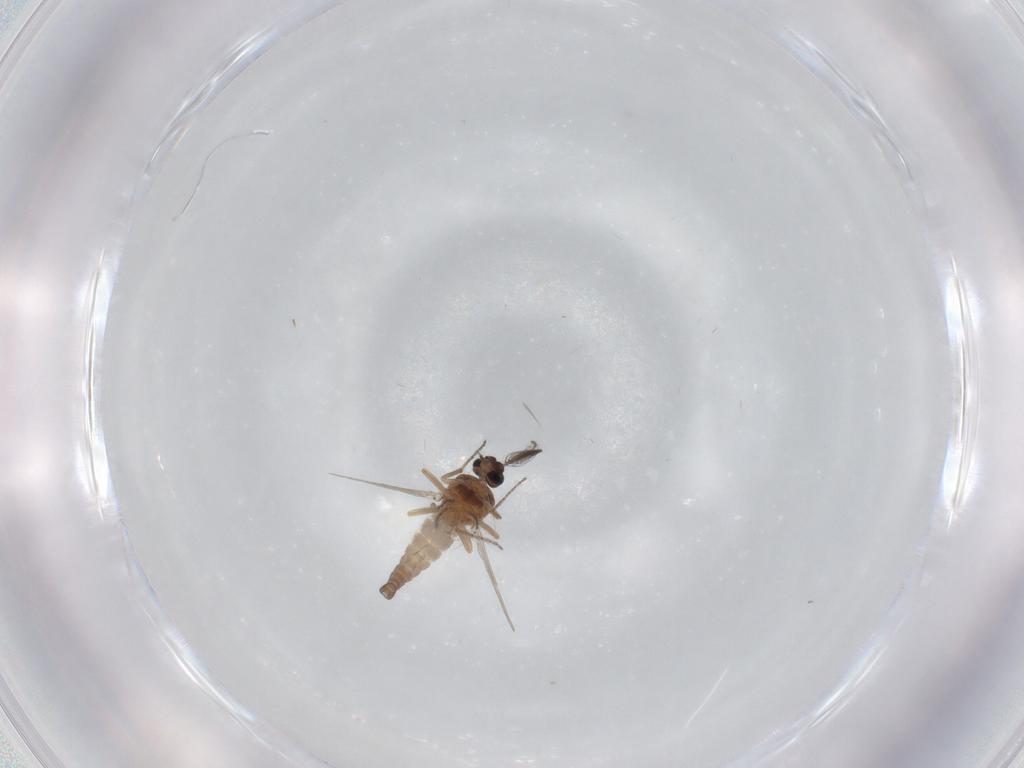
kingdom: Animalia
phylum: Arthropoda
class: Insecta
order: Diptera
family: Ceratopogonidae
